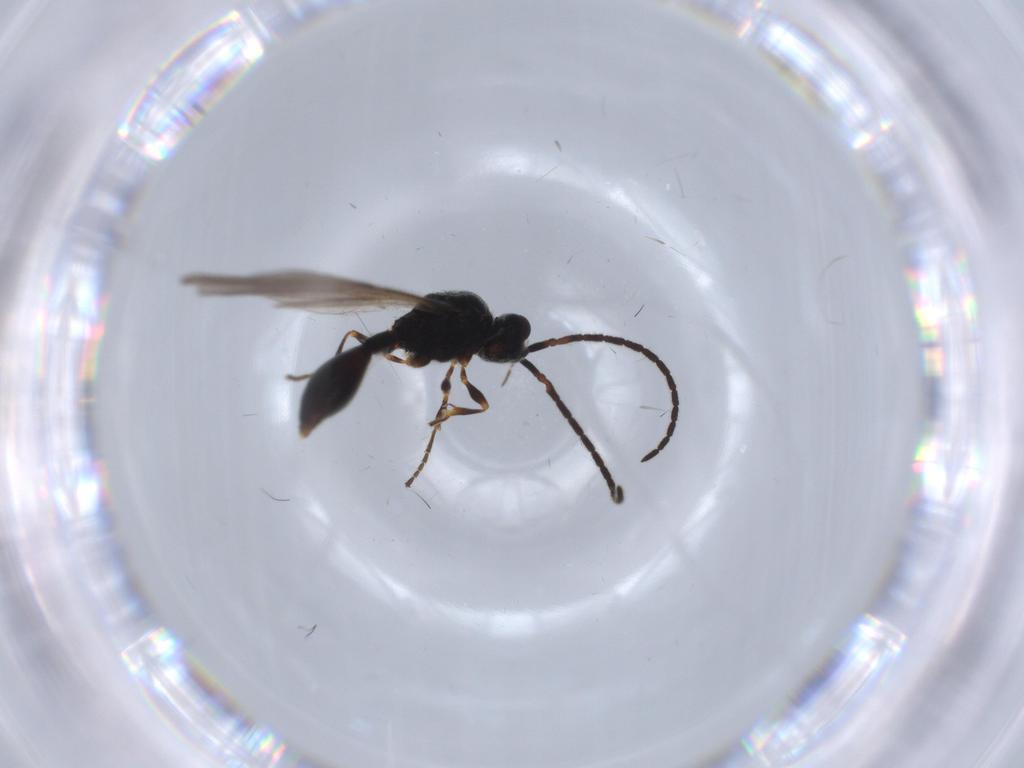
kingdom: Animalia
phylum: Arthropoda
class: Insecta
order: Hymenoptera
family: Braconidae
